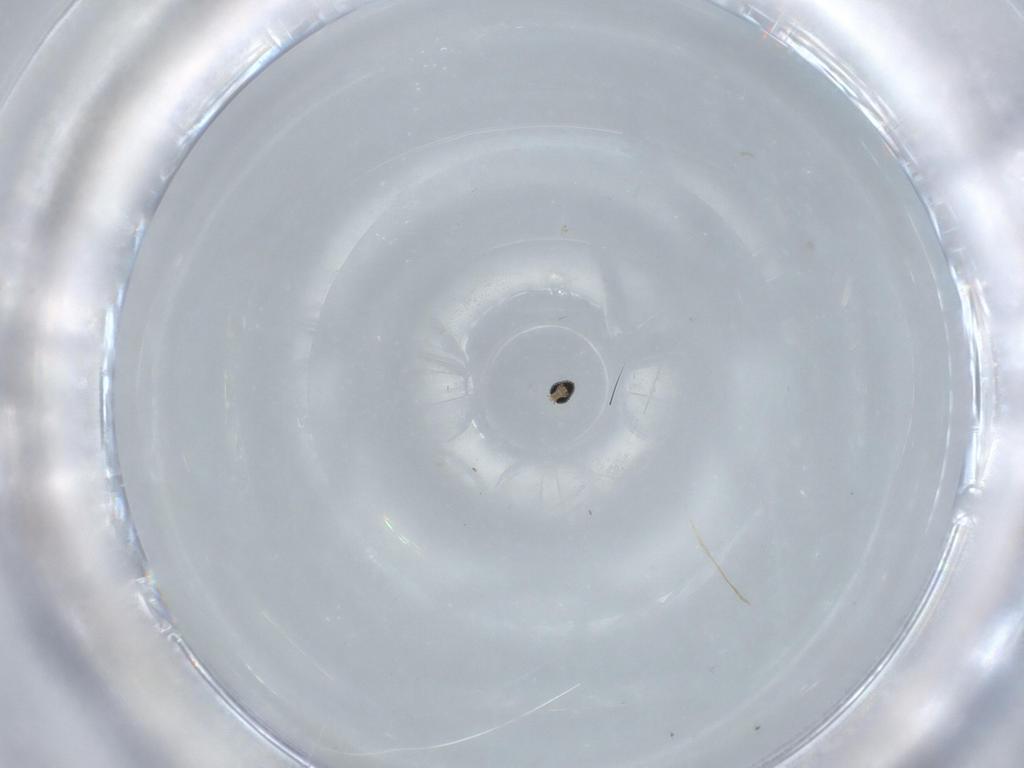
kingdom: Animalia
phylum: Arthropoda
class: Insecta
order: Diptera
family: Cecidomyiidae
